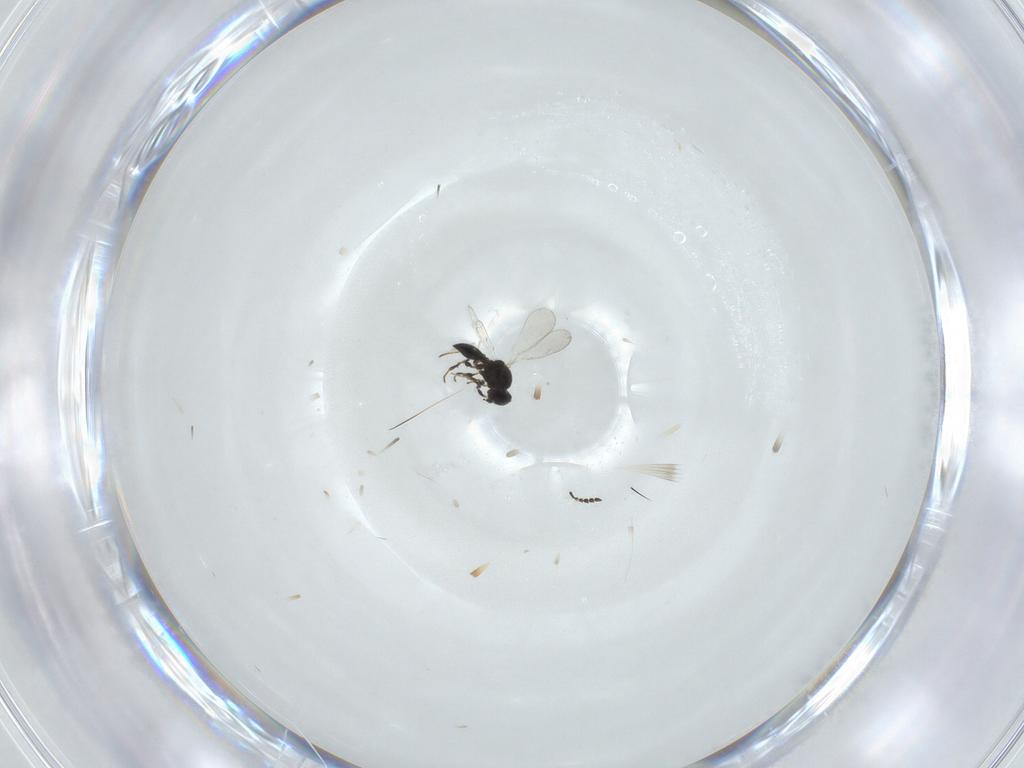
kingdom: Animalia
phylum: Arthropoda
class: Insecta
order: Hymenoptera
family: Platygastridae
